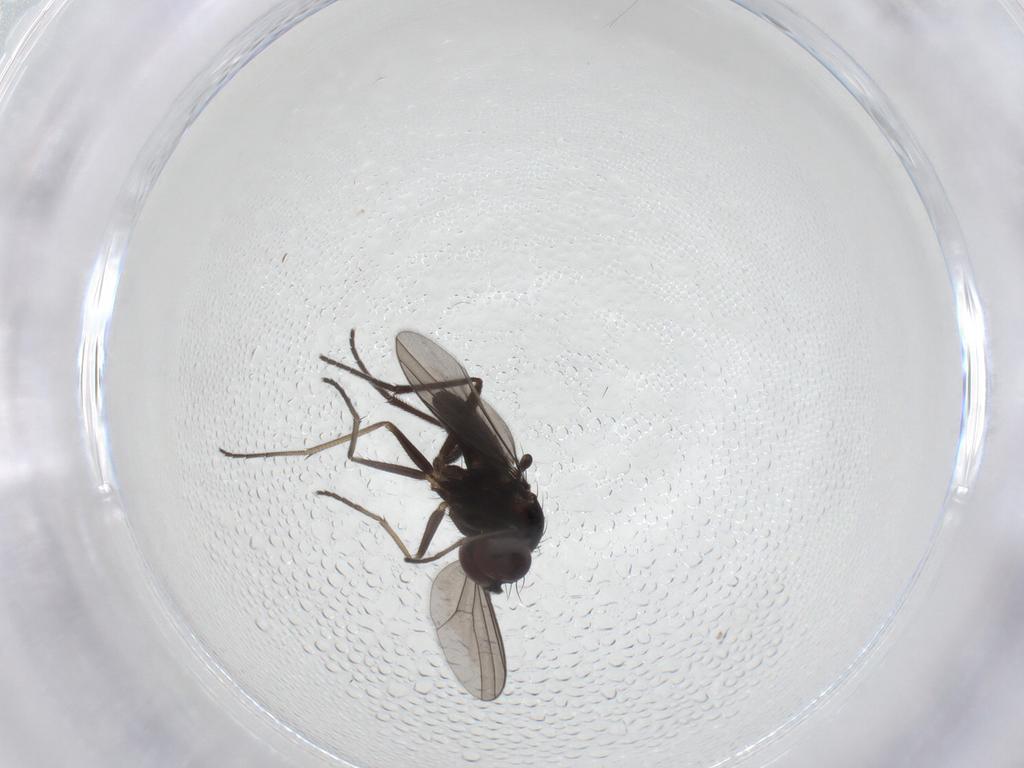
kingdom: Animalia
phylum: Arthropoda
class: Insecta
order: Diptera
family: Dolichopodidae
